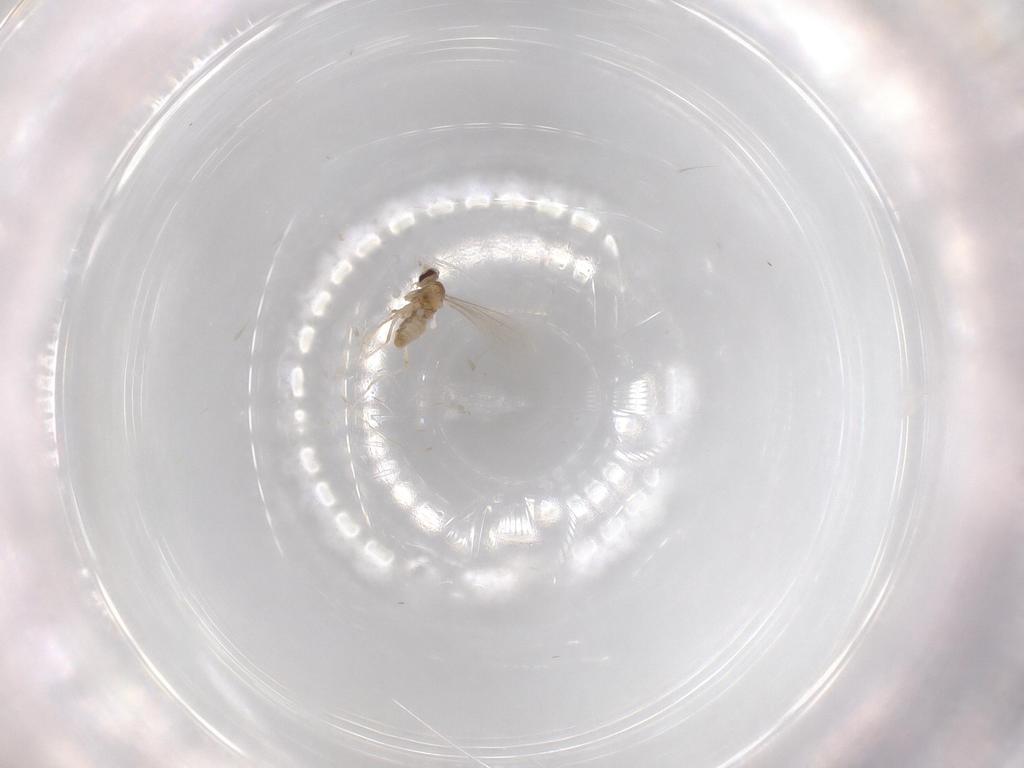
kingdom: Animalia
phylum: Arthropoda
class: Insecta
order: Diptera
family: Cecidomyiidae
